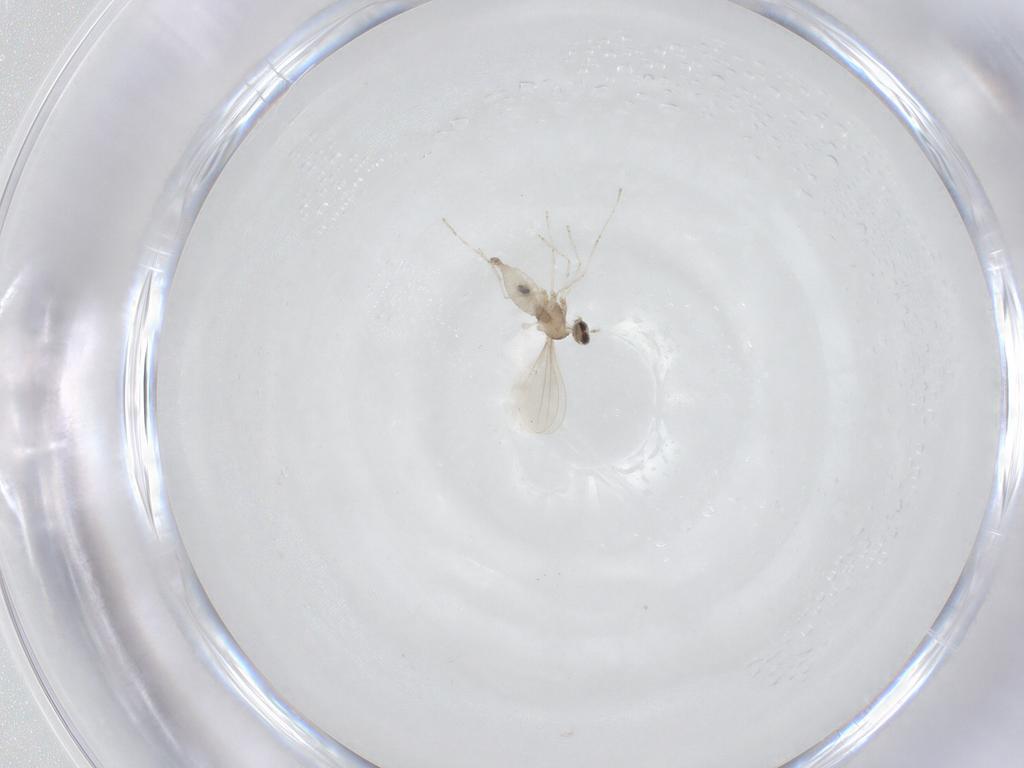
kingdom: Animalia
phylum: Arthropoda
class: Insecta
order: Diptera
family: Cecidomyiidae
